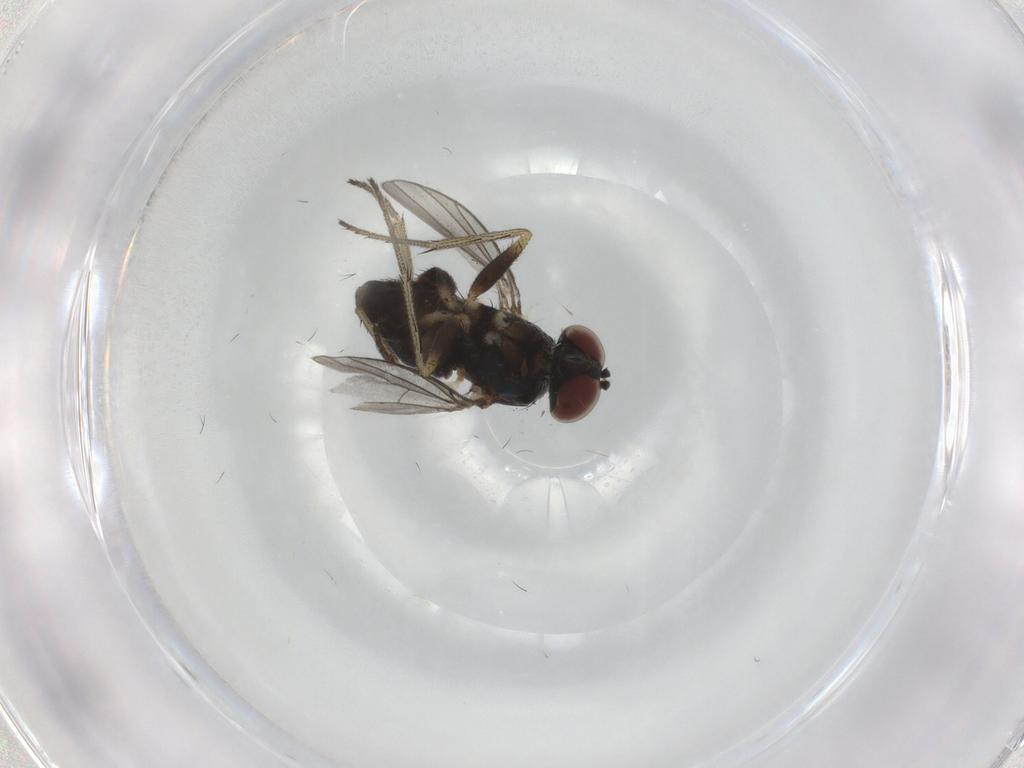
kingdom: Animalia
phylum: Arthropoda
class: Insecta
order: Diptera
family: Dolichopodidae
